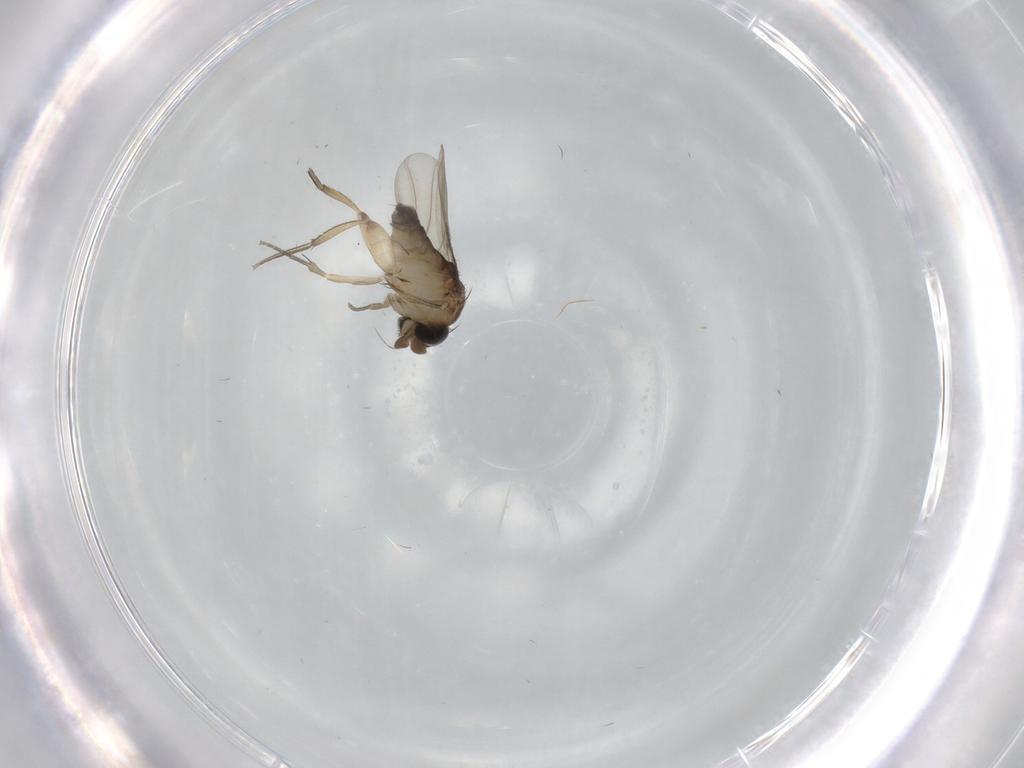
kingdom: Animalia
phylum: Arthropoda
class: Insecta
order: Diptera
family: Phoridae
